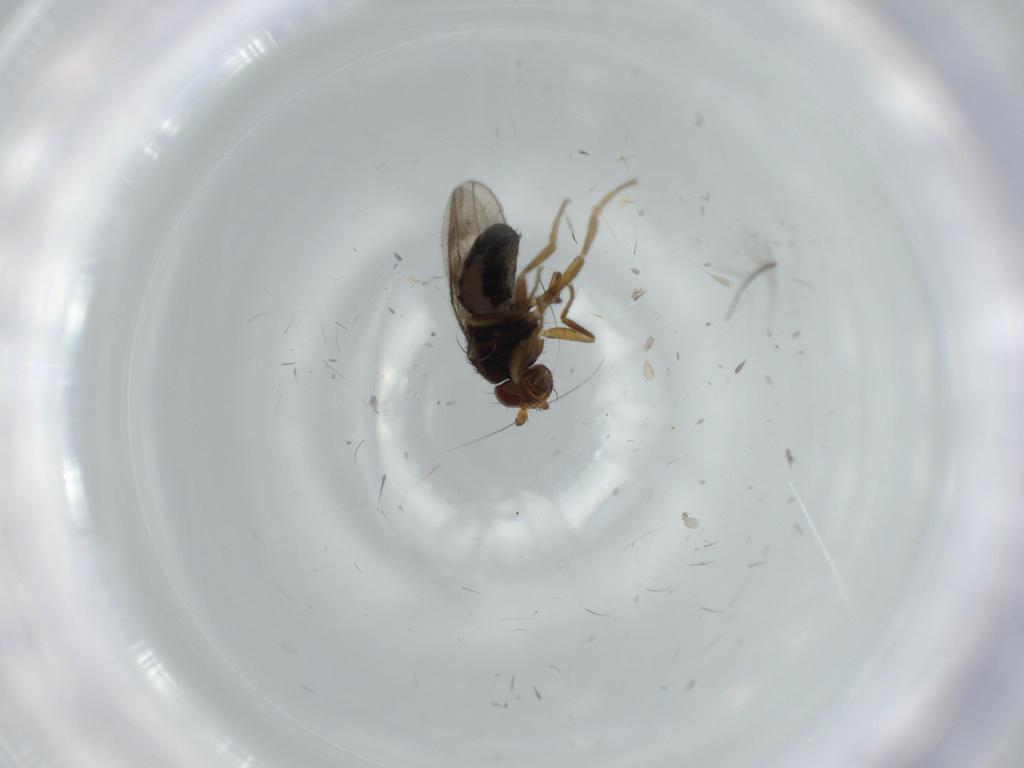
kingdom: Animalia
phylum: Arthropoda
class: Insecta
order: Diptera
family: Sphaeroceridae
